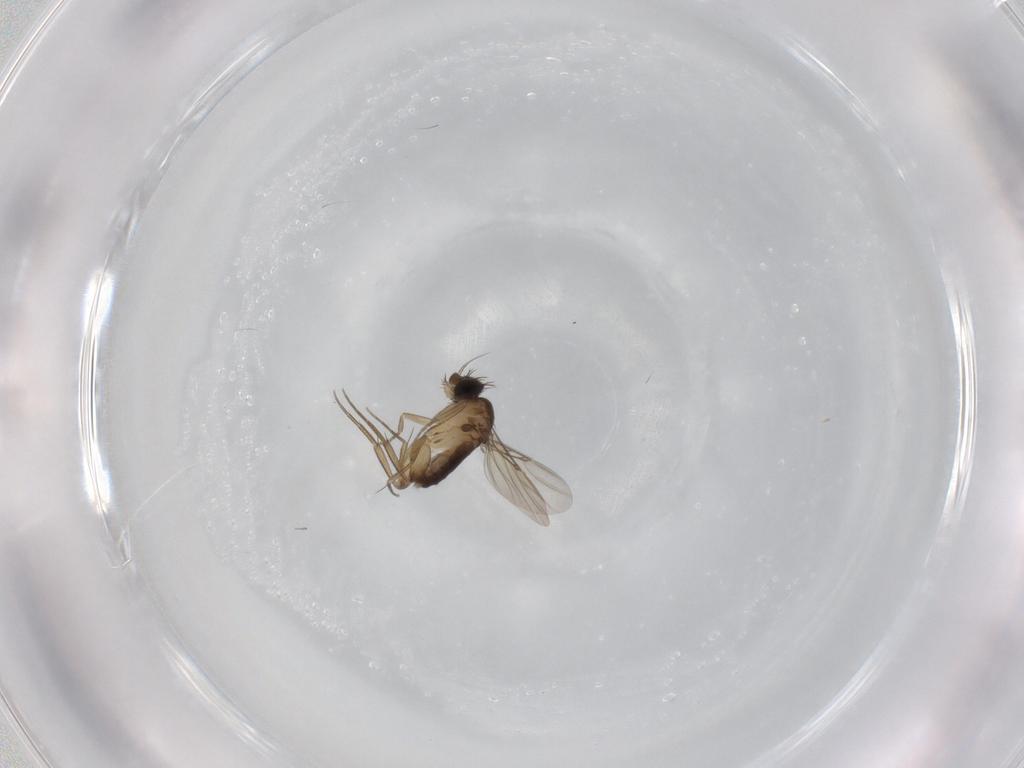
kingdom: Animalia
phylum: Arthropoda
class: Insecta
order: Diptera
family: Phoridae
